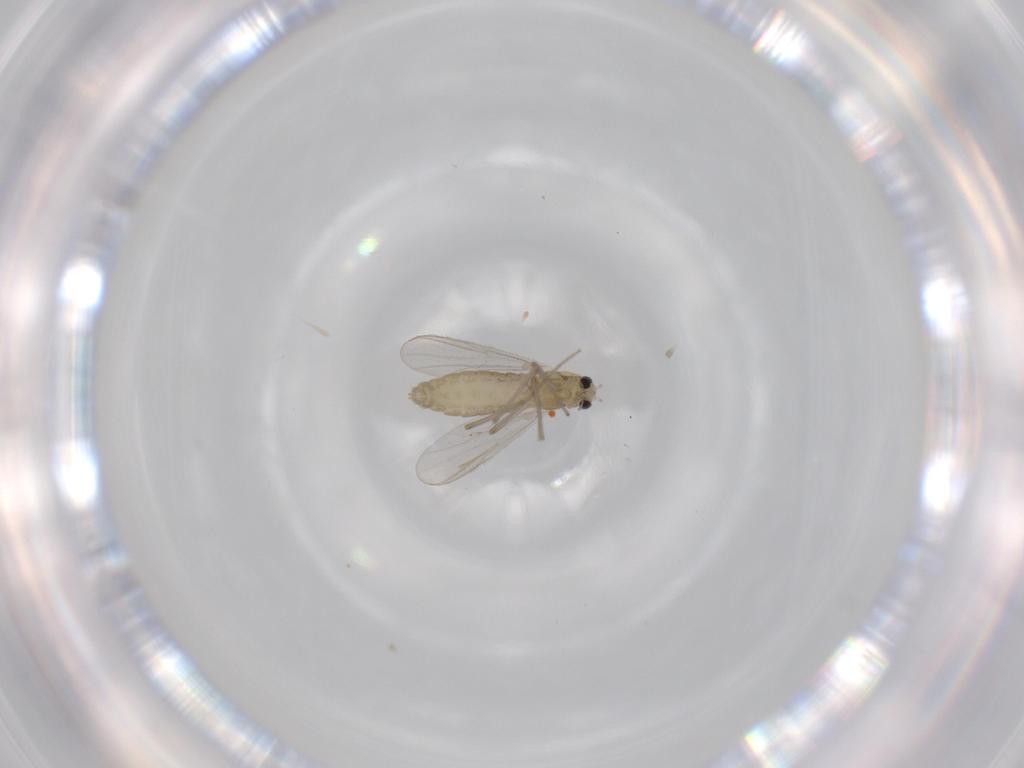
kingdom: Animalia
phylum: Arthropoda
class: Insecta
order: Diptera
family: Chironomidae
